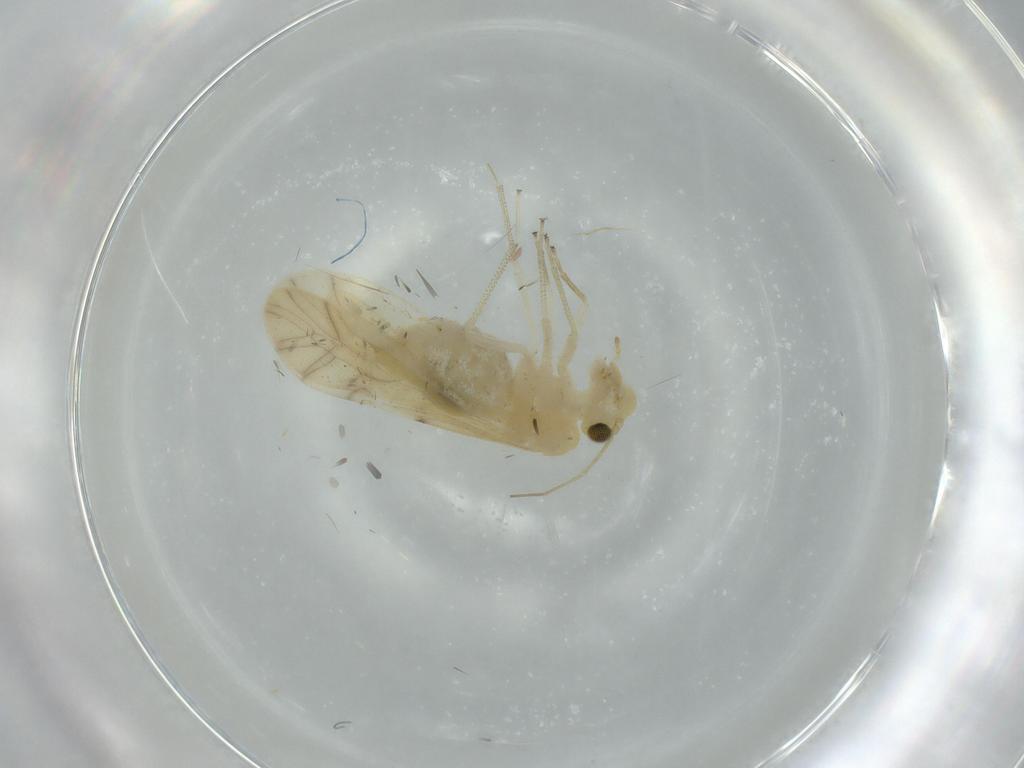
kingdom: Animalia
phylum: Arthropoda
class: Insecta
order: Psocodea
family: Caeciliusidae
